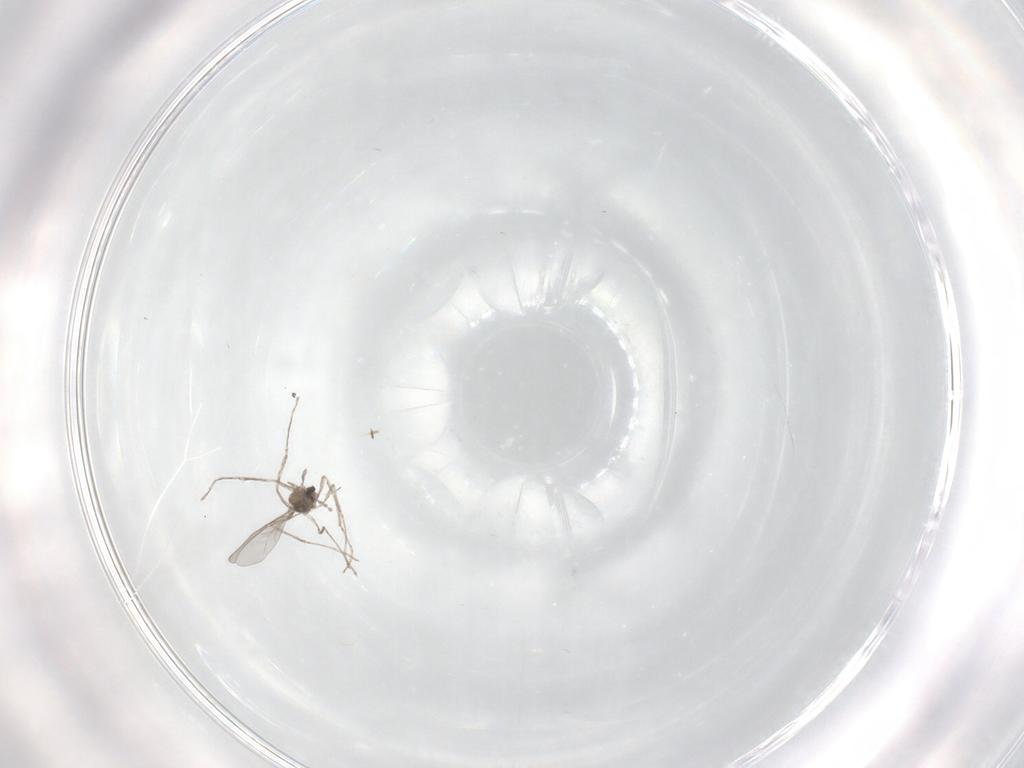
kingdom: Animalia
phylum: Arthropoda
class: Insecta
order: Diptera
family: Cecidomyiidae
